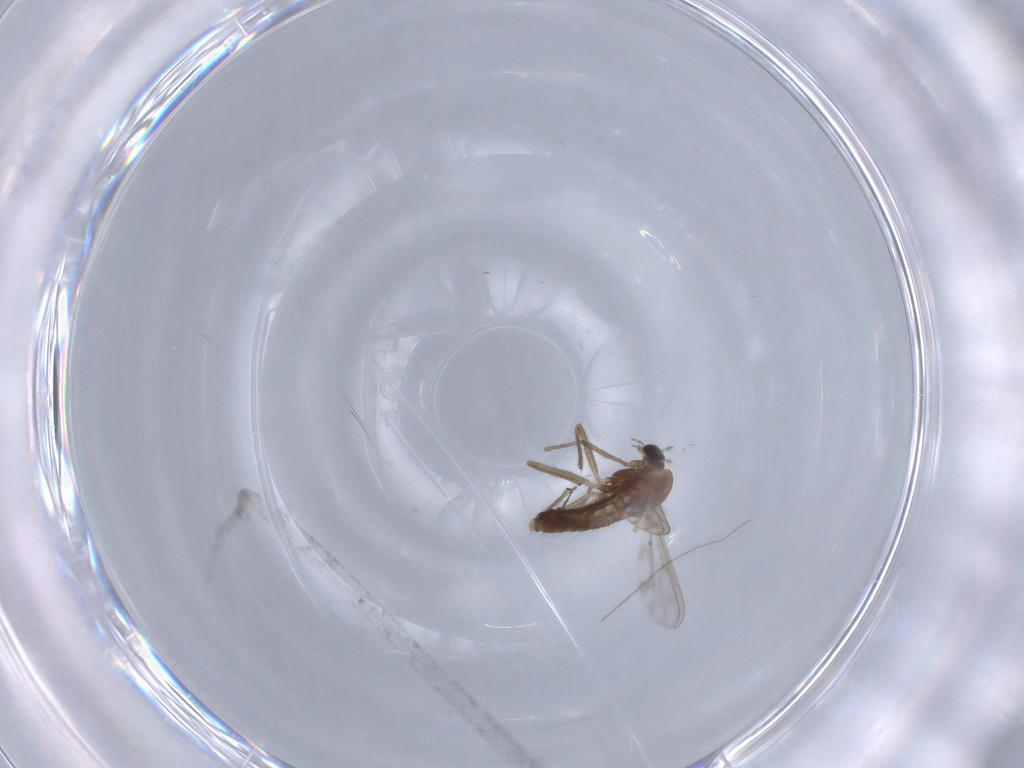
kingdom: Animalia
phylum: Arthropoda
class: Insecta
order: Diptera
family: Chironomidae
